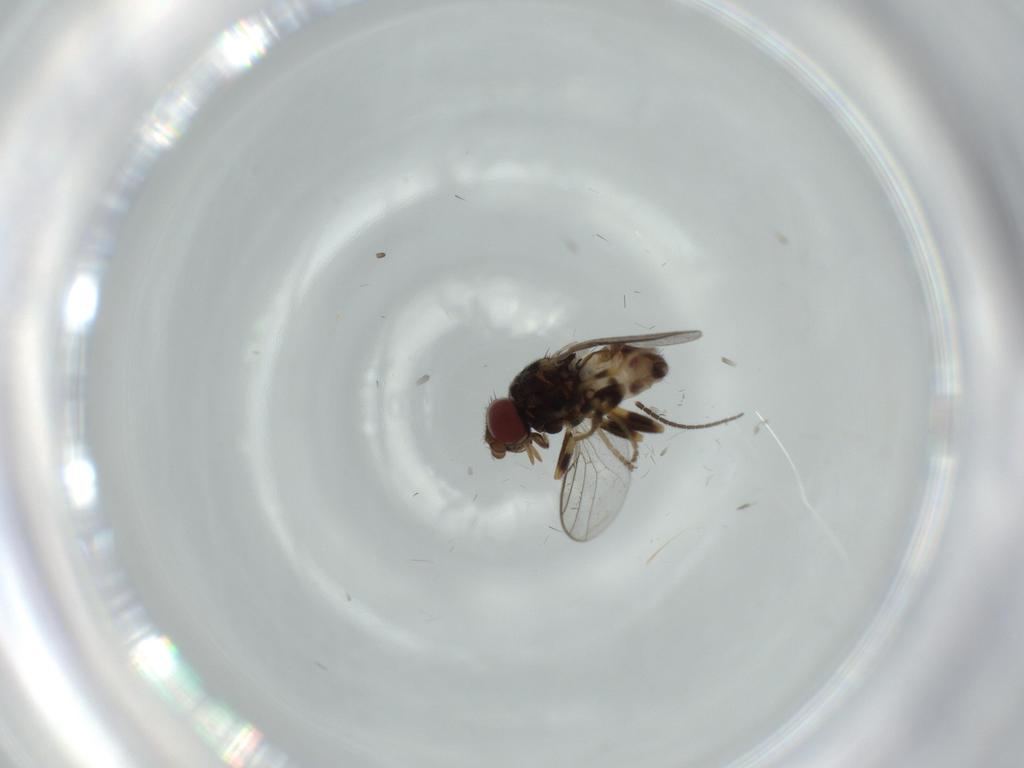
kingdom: Animalia
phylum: Arthropoda
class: Insecta
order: Diptera
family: Chloropidae
